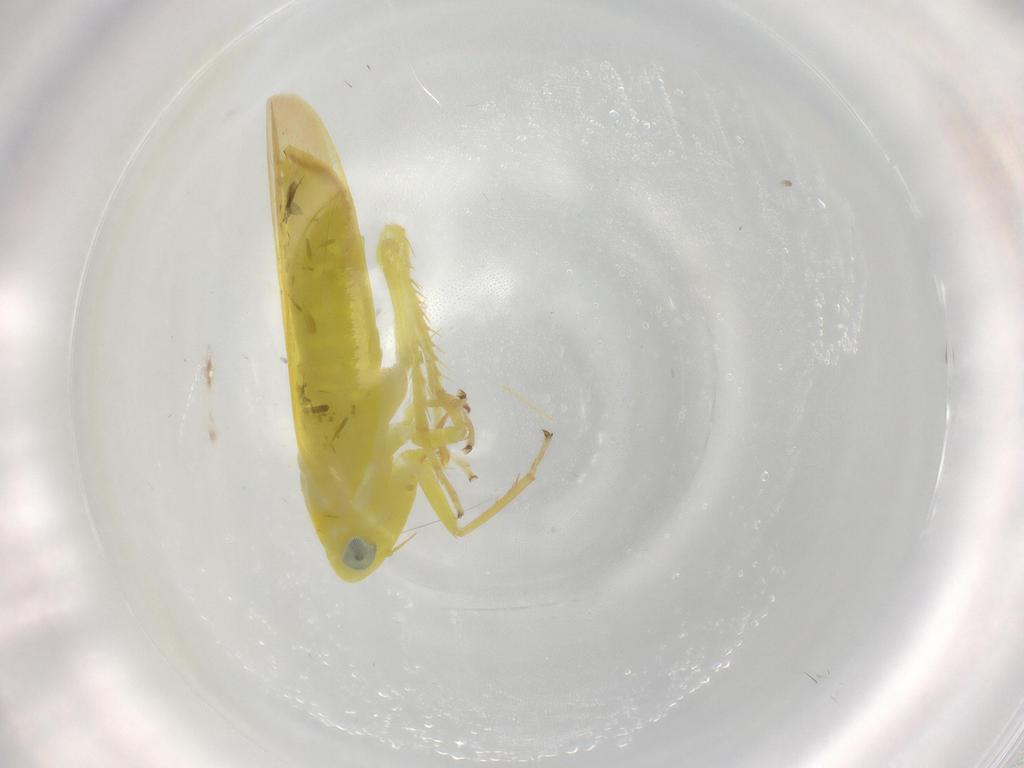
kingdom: Animalia
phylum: Arthropoda
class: Insecta
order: Hemiptera
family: Cicadellidae
